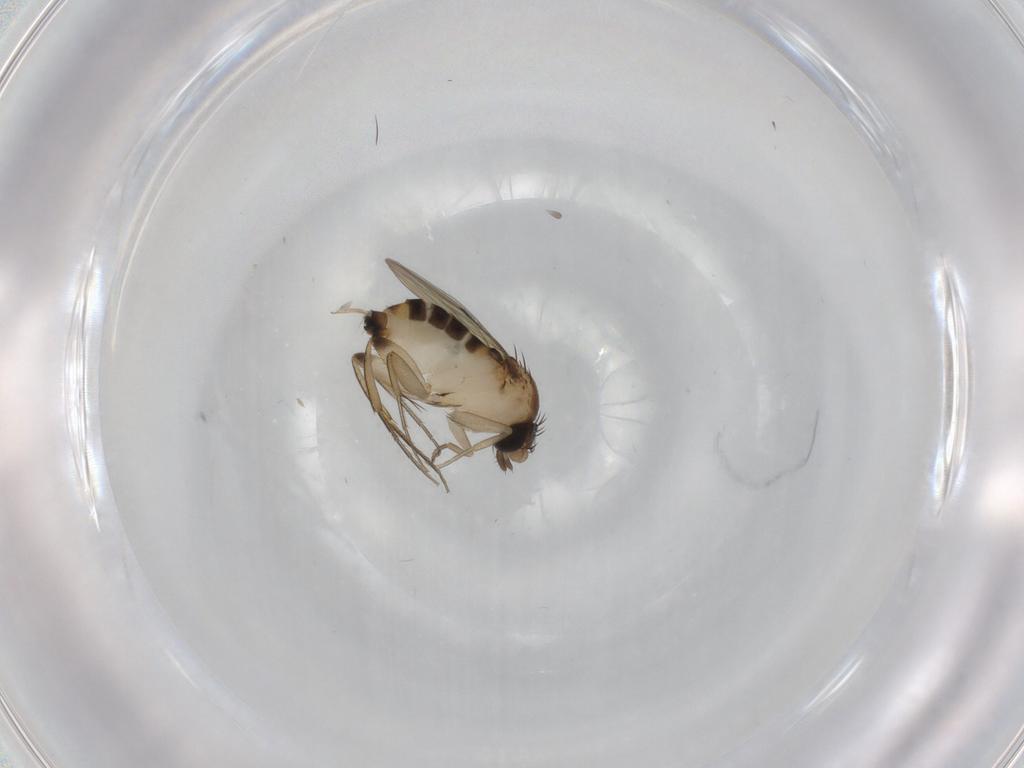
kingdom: Animalia
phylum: Arthropoda
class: Insecta
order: Diptera
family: Phoridae
